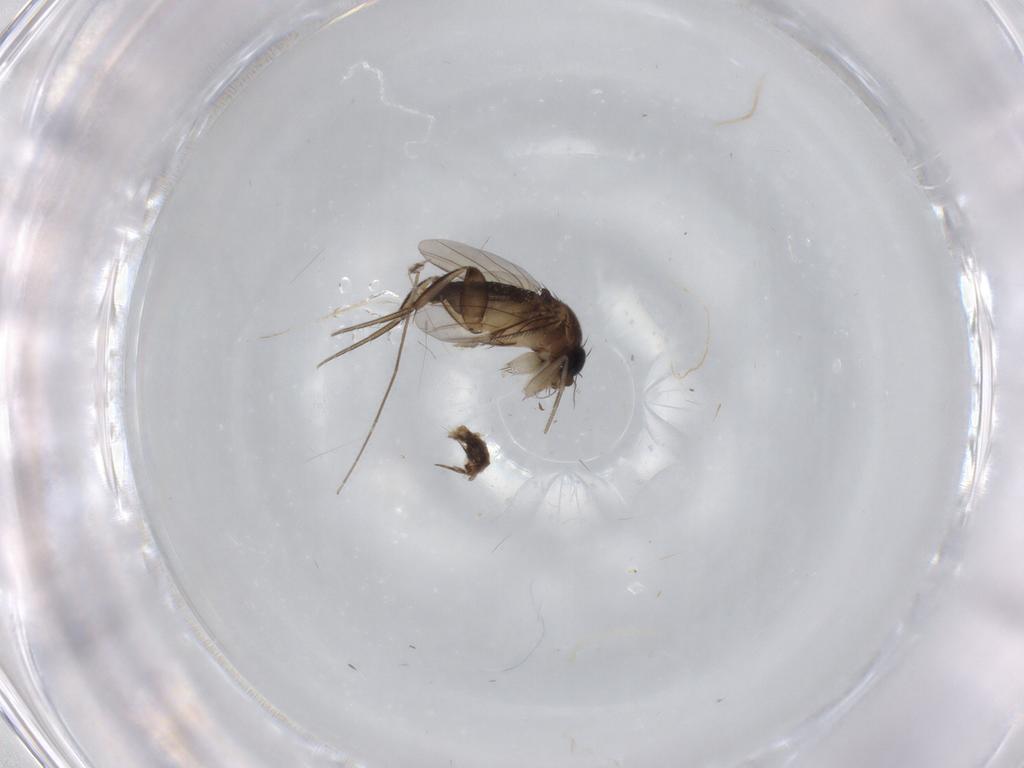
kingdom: Animalia
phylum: Arthropoda
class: Insecta
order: Diptera
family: Phoridae
